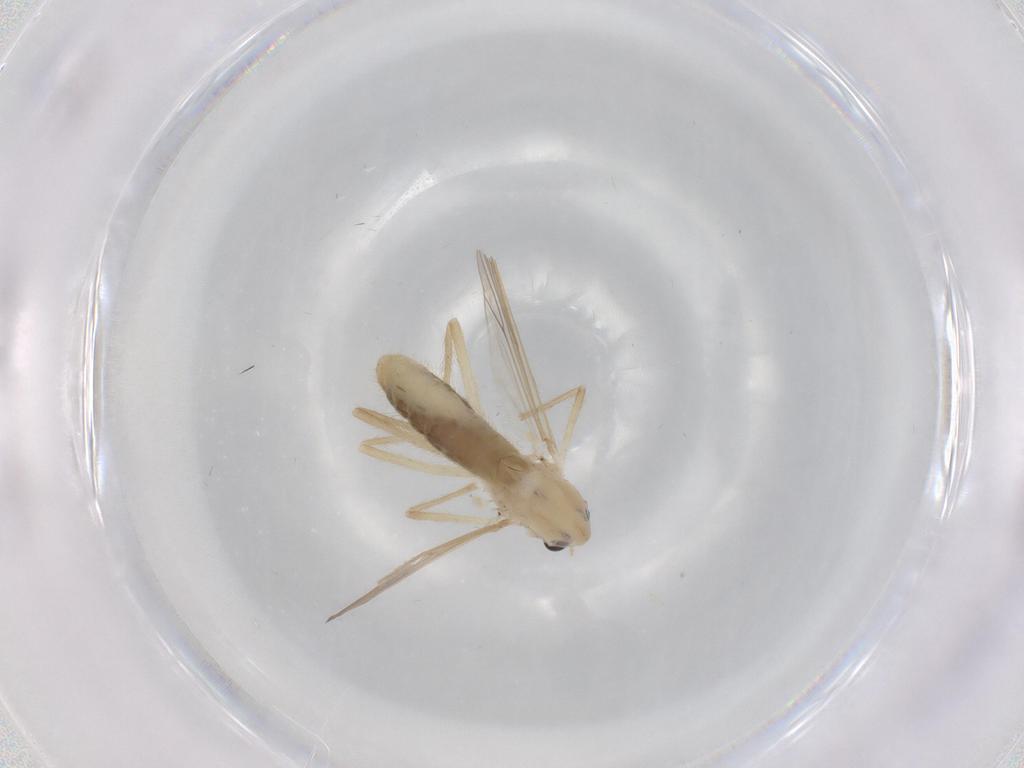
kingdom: Animalia
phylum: Arthropoda
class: Insecta
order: Diptera
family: Chironomidae
